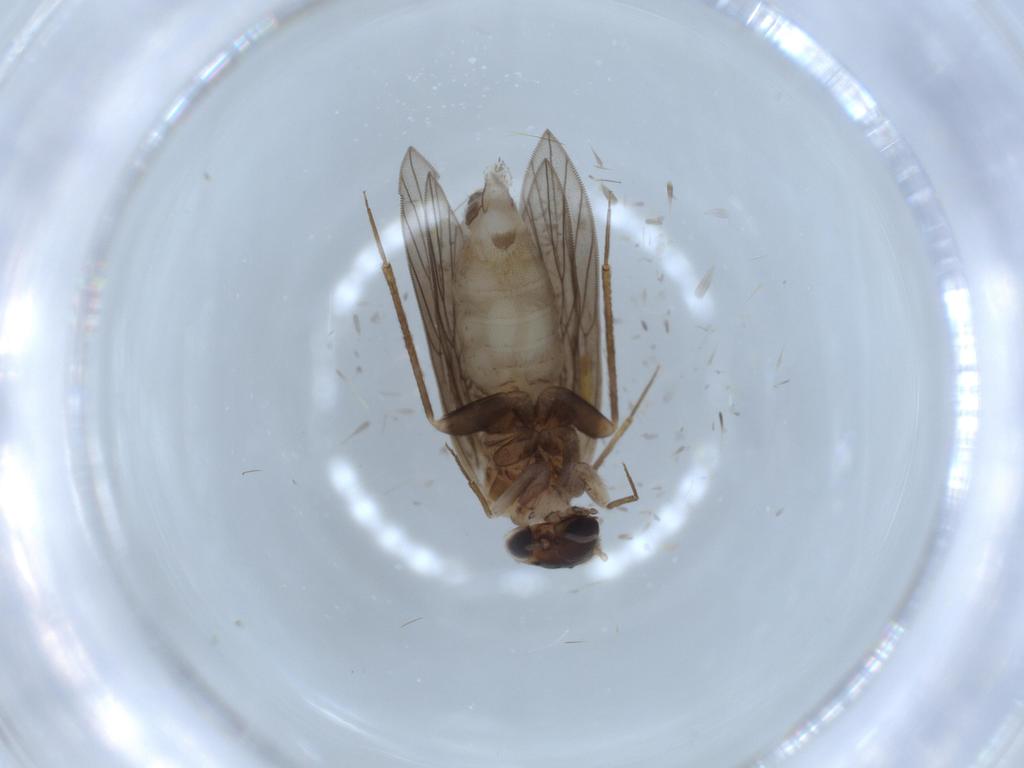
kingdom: Animalia
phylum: Arthropoda
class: Insecta
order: Psocodea
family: Lepidopsocidae
